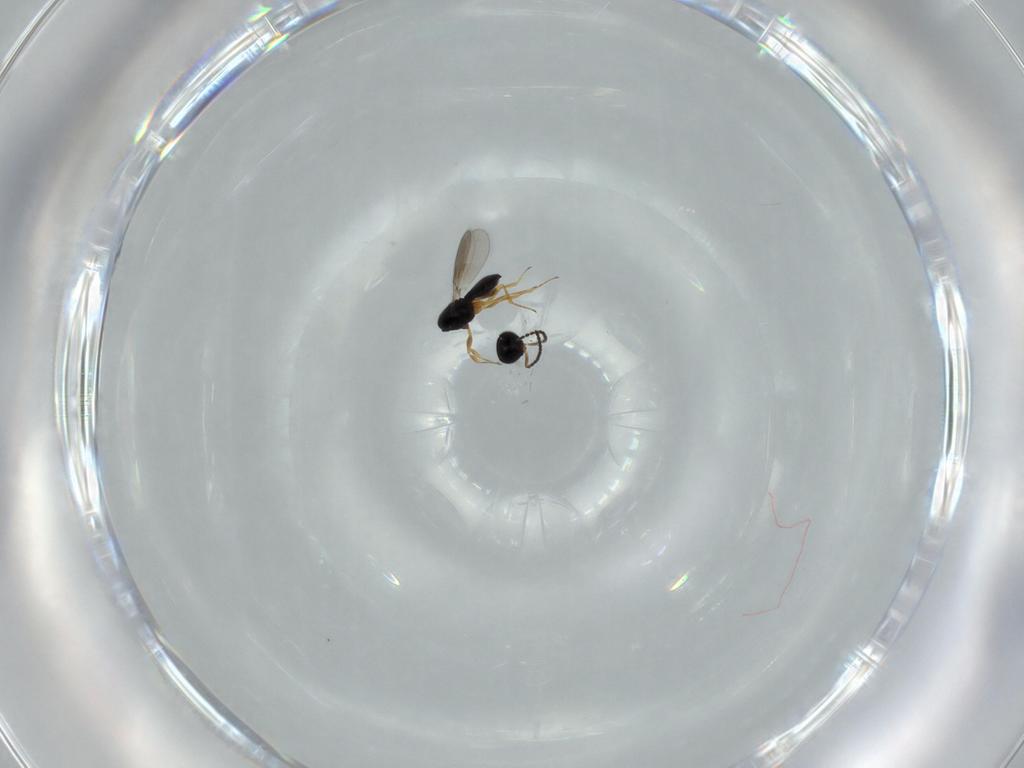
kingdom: Animalia
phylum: Arthropoda
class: Insecta
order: Hymenoptera
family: Scelionidae
